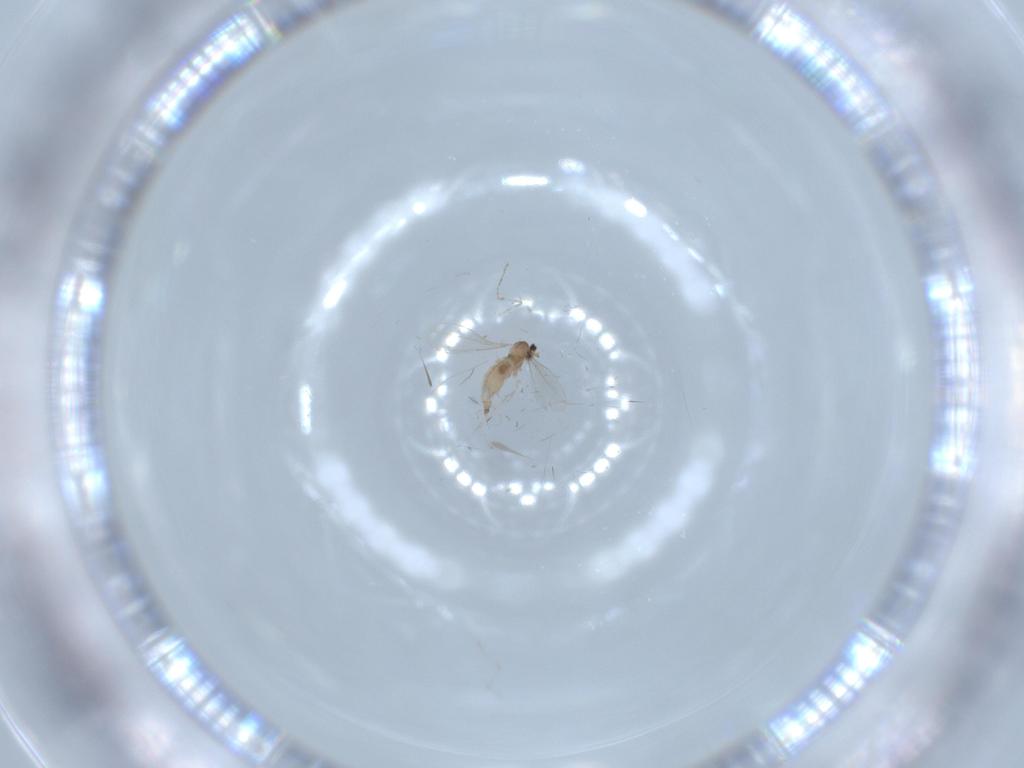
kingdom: Animalia
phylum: Arthropoda
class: Insecta
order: Diptera
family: Cecidomyiidae
